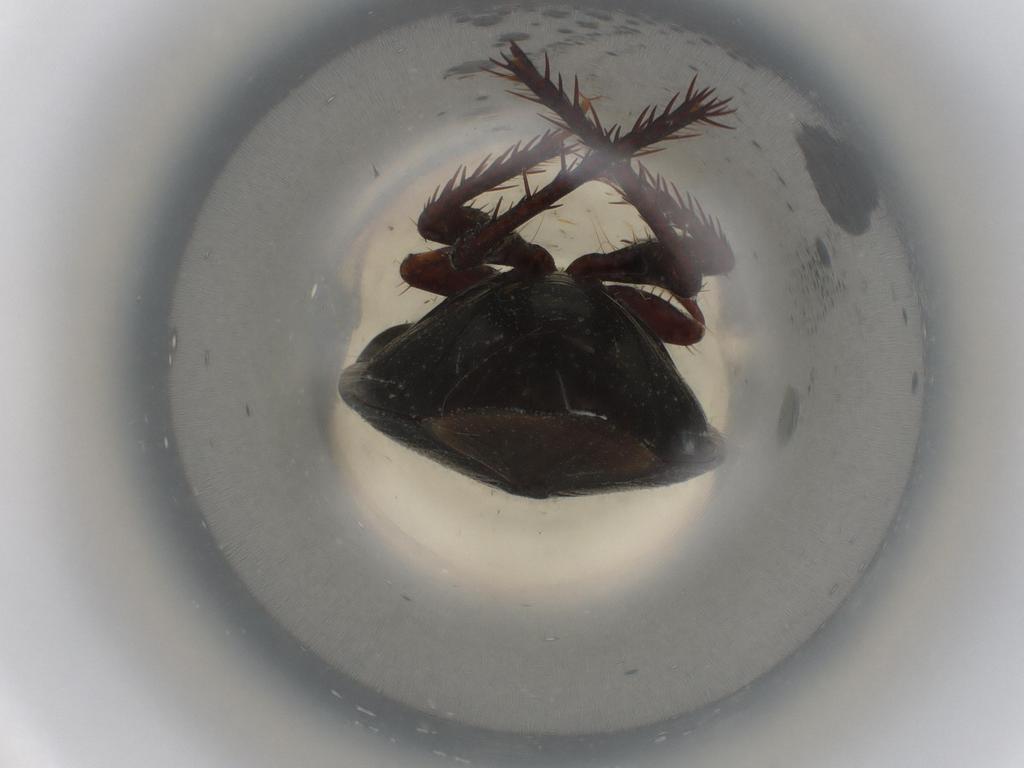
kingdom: Animalia
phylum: Arthropoda
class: Insecta
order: Hemiptera
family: Cydnidae
